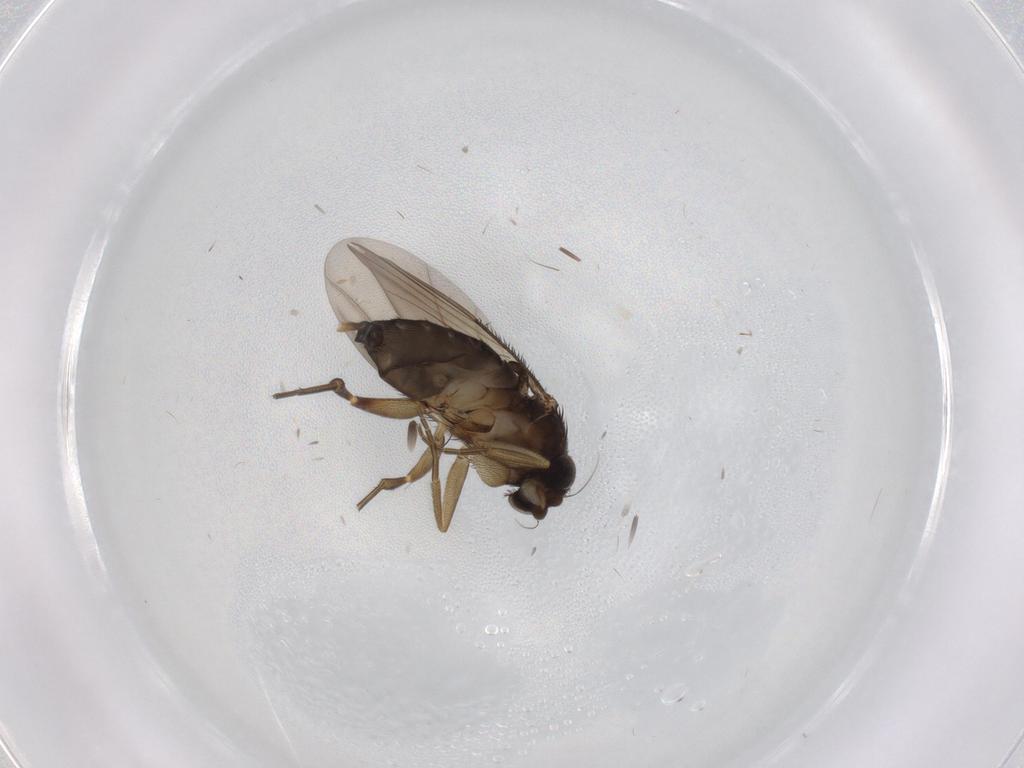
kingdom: Animalia
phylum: Arthropoda
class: Insecta
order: Diptera
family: Phoridae
